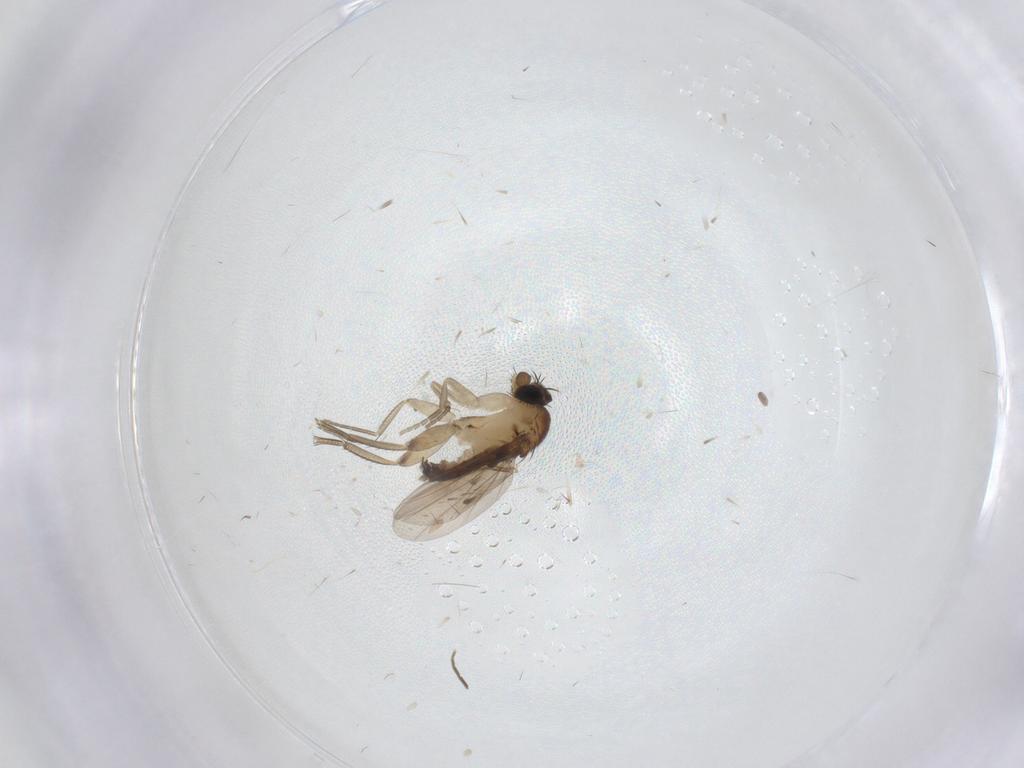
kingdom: Animalia
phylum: Arthropoda
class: Insecta
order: Diptera
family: Phoridae
